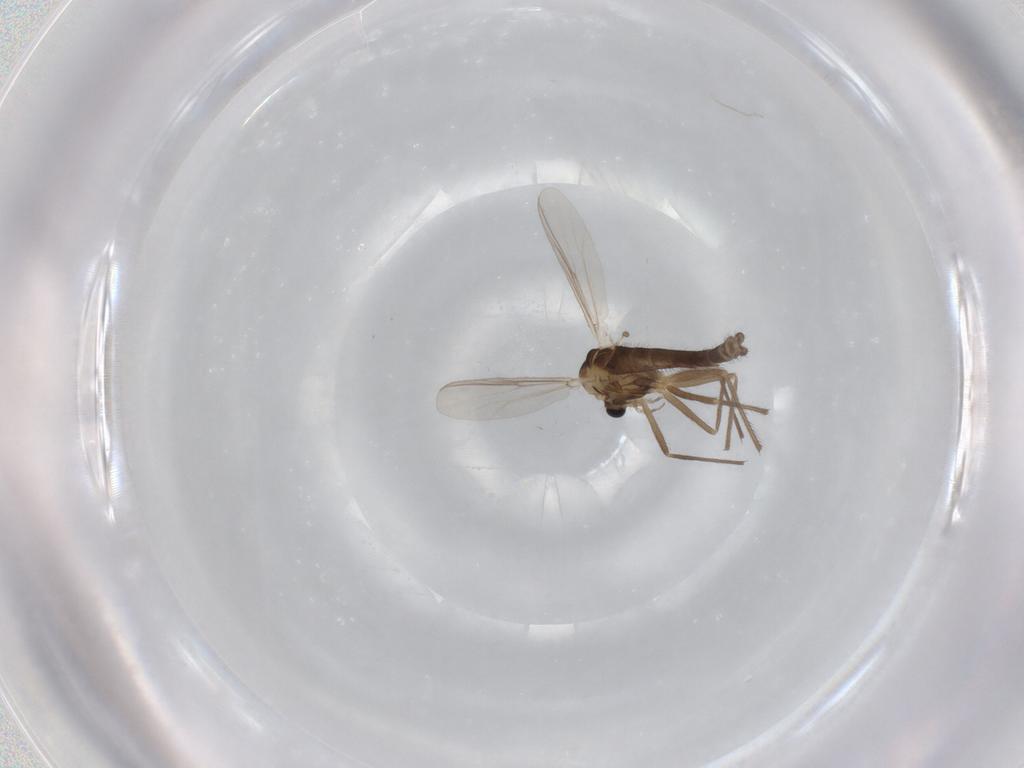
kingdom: Animalia
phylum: Arthropoda
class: Insecta
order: Diptera
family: Chironomidae
